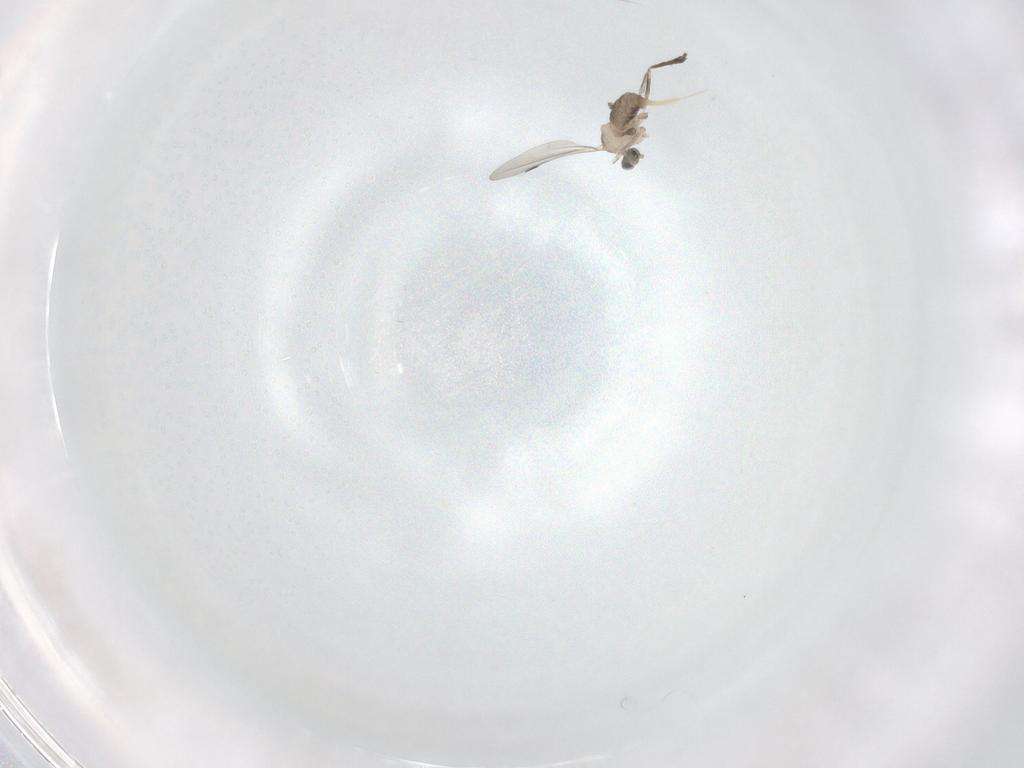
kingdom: Animalia
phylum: Arthropoda
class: Insecta
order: Diptera
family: Cecidomyiidae
